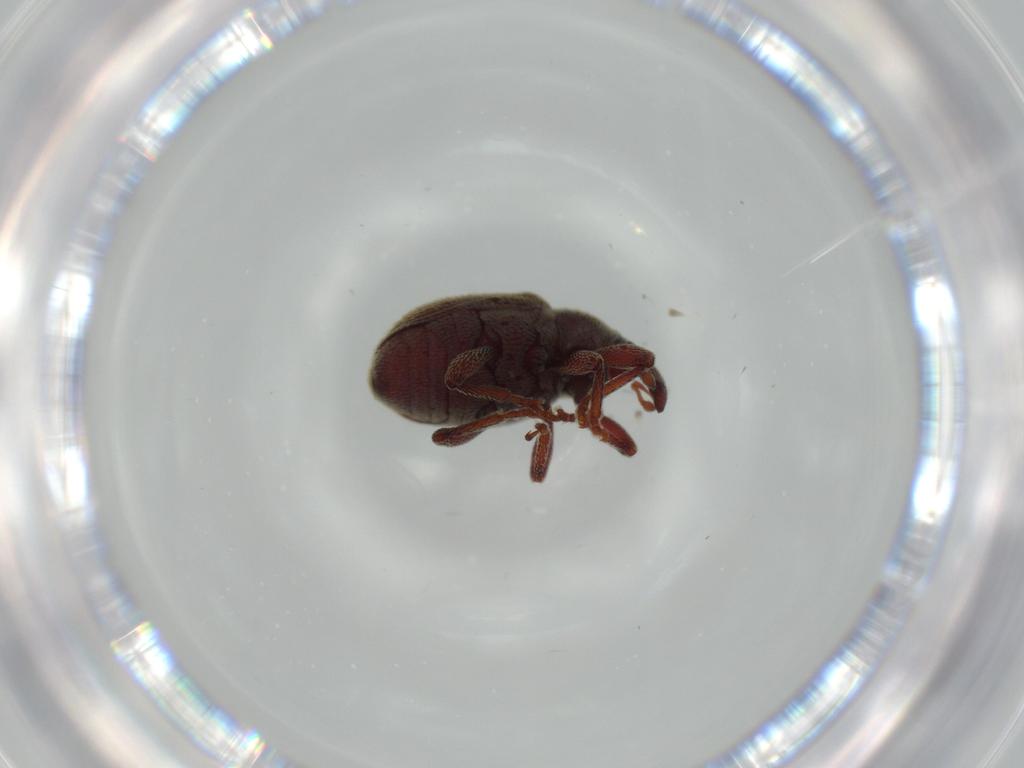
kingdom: Animalia
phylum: Arthropoda
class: Insecta
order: Coleoptera
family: Curculionidae
